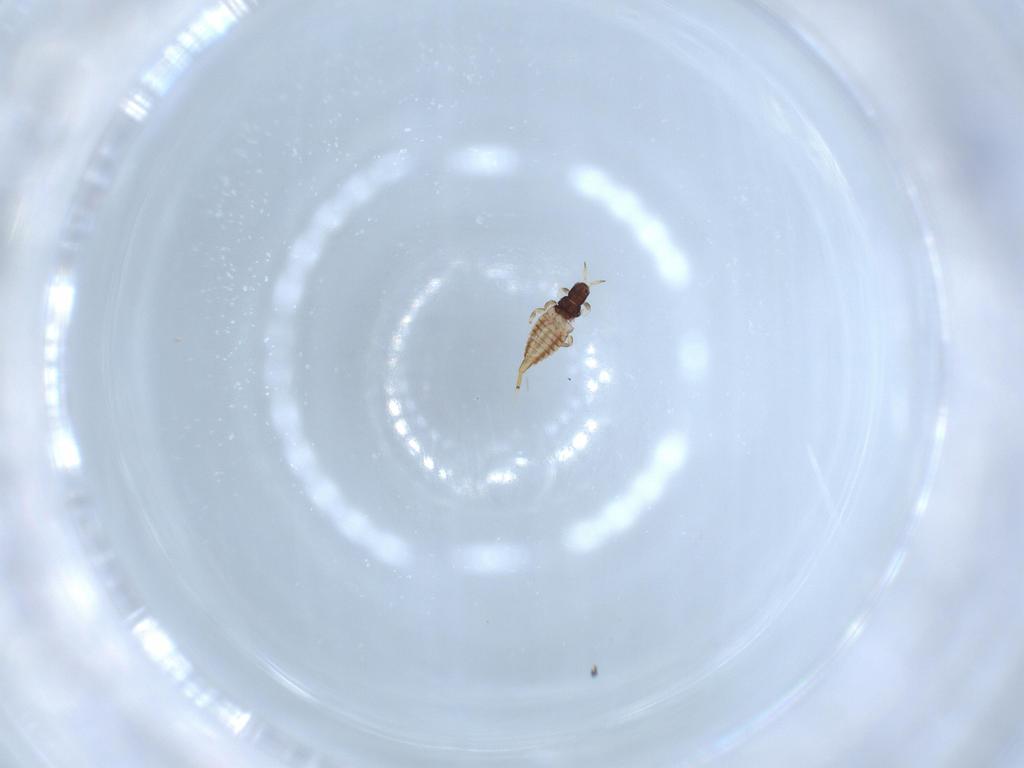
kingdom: Animalia
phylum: Arthropoda
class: Insecta
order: Thysanoptera
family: Phlaeothripidae
